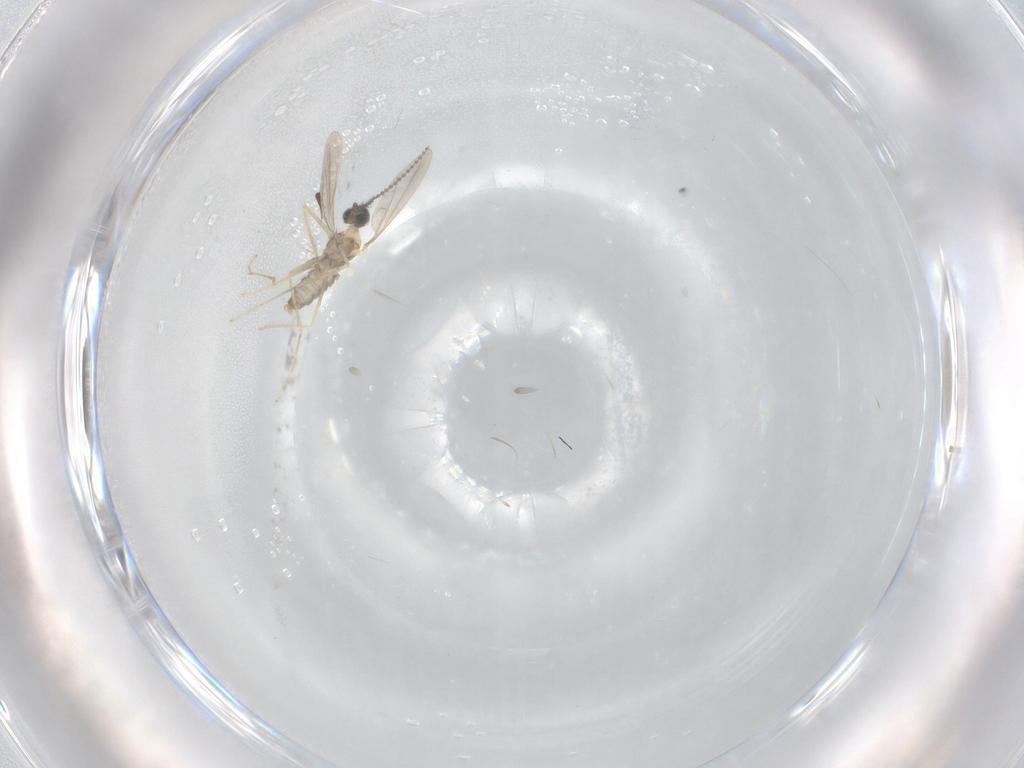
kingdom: Animalia
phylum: Arthropoda
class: Insecta
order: Diptera
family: Cecidomyiidae
